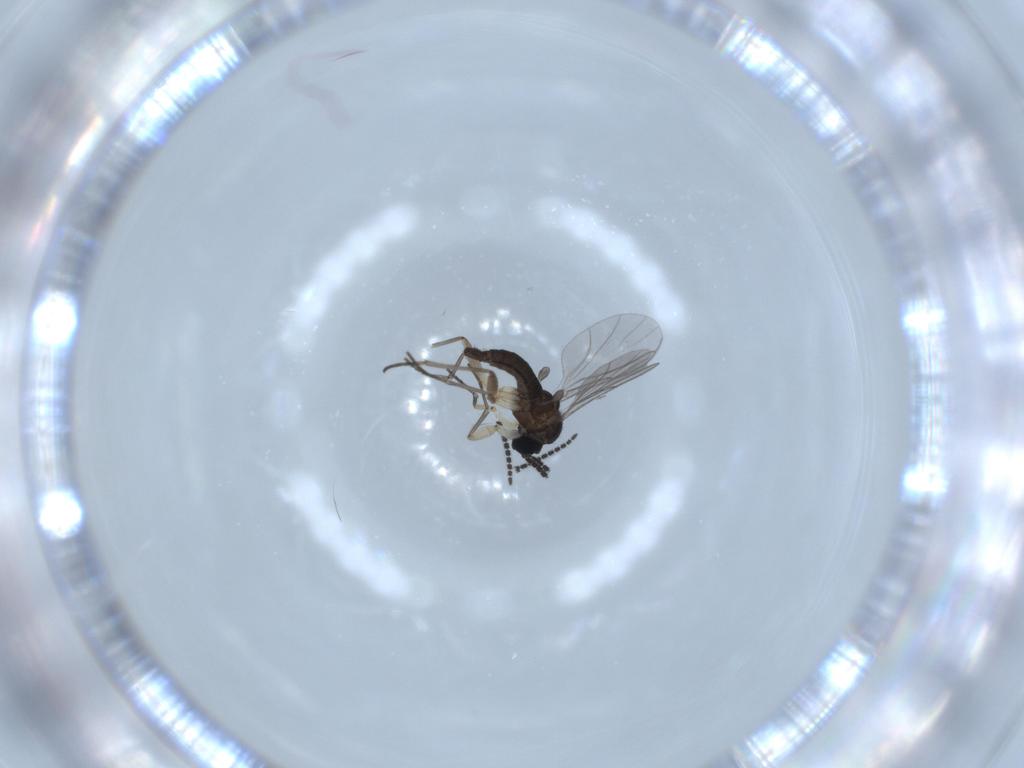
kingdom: Animalia
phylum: Arthropoda
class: Insecta
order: Diptera
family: Sciaridae
